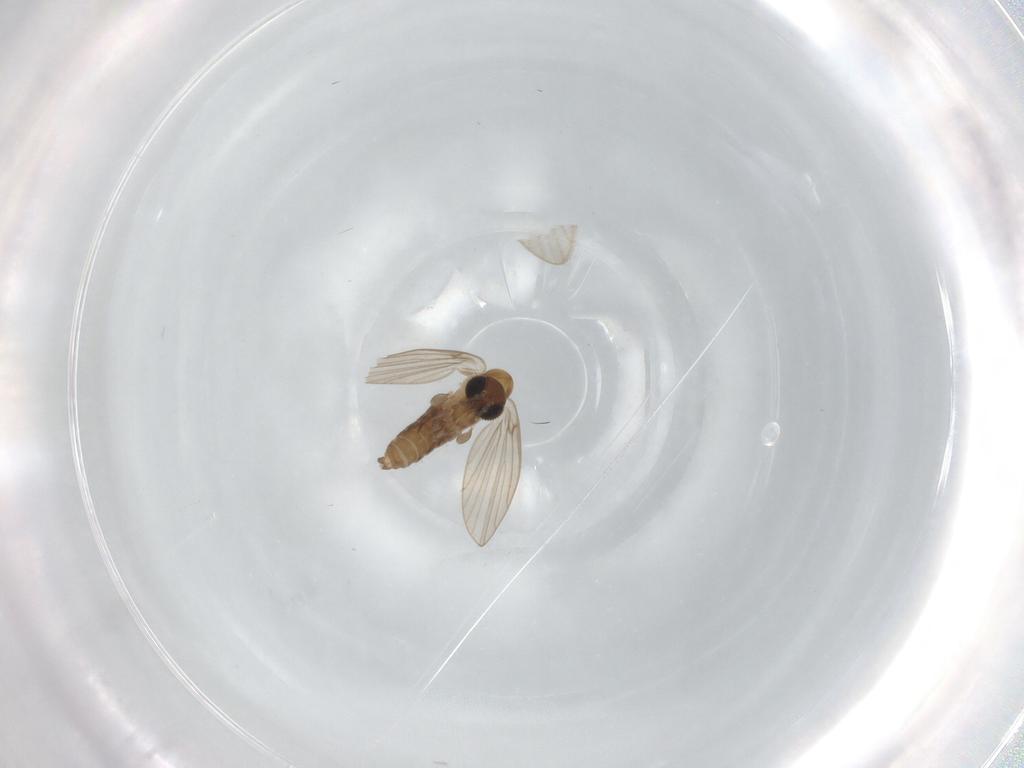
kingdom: Animalia
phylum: Arthropoda
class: Insecta
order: Diptera
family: Cecidomyiidae
